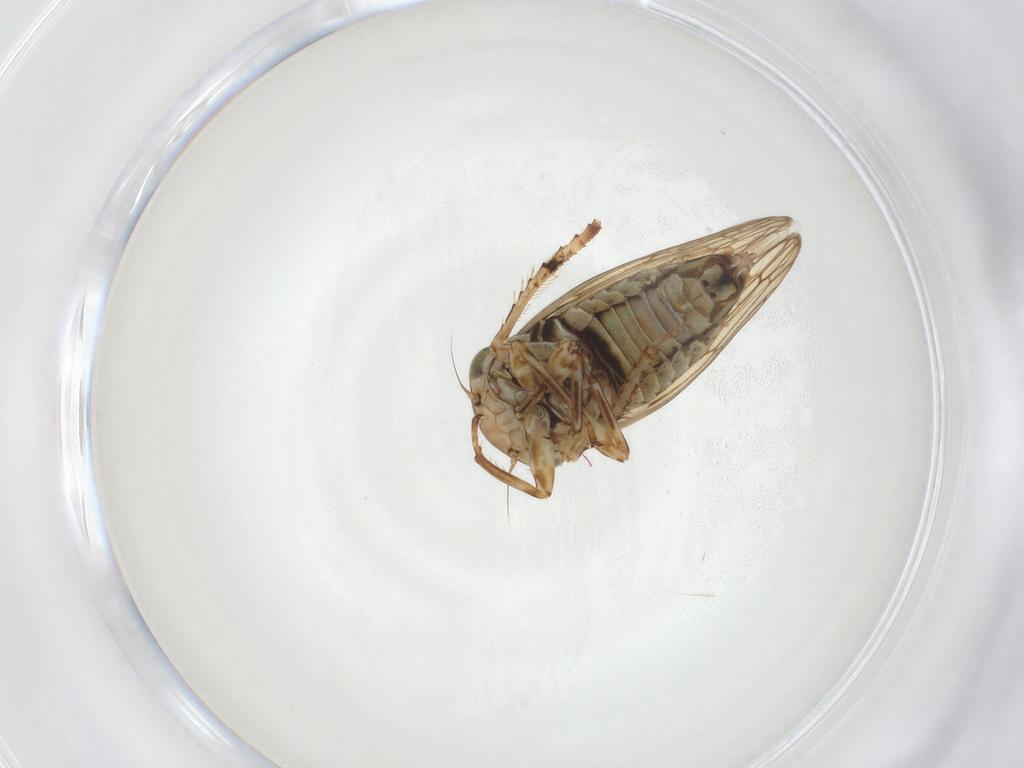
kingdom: Animalia
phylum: Arthropoda
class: Insecta
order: Hemiptera
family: Cicadellidae
